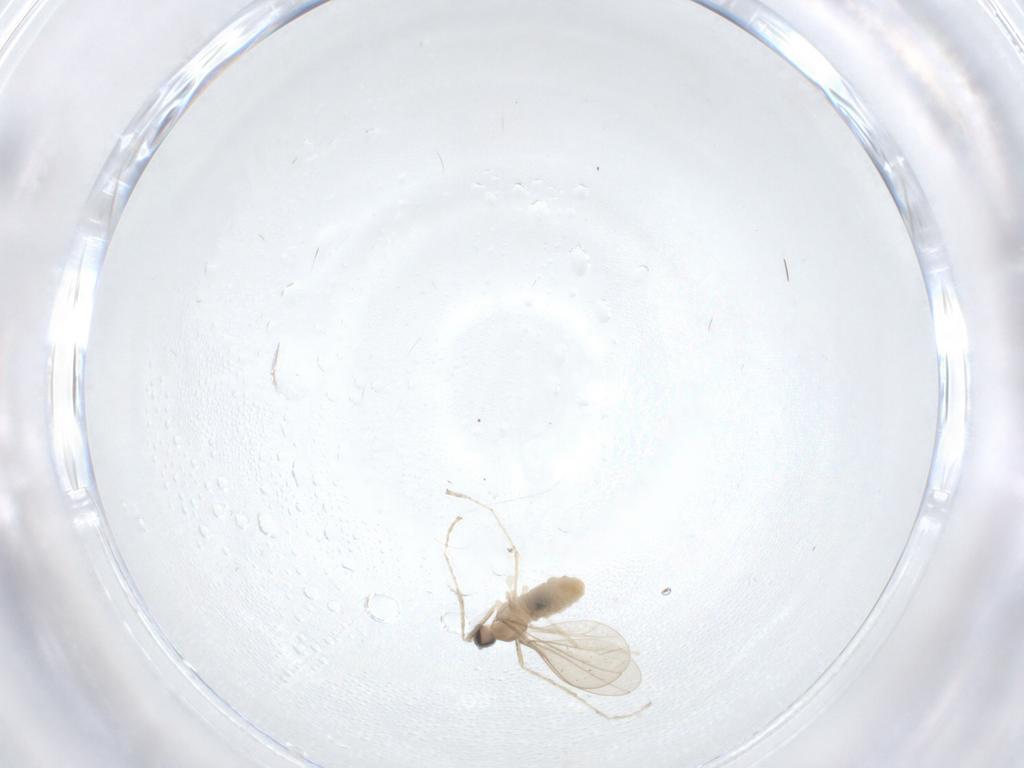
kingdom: Animalia
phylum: Arthropoda
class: Insecta
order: Diptera
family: Cecidomyiidae
